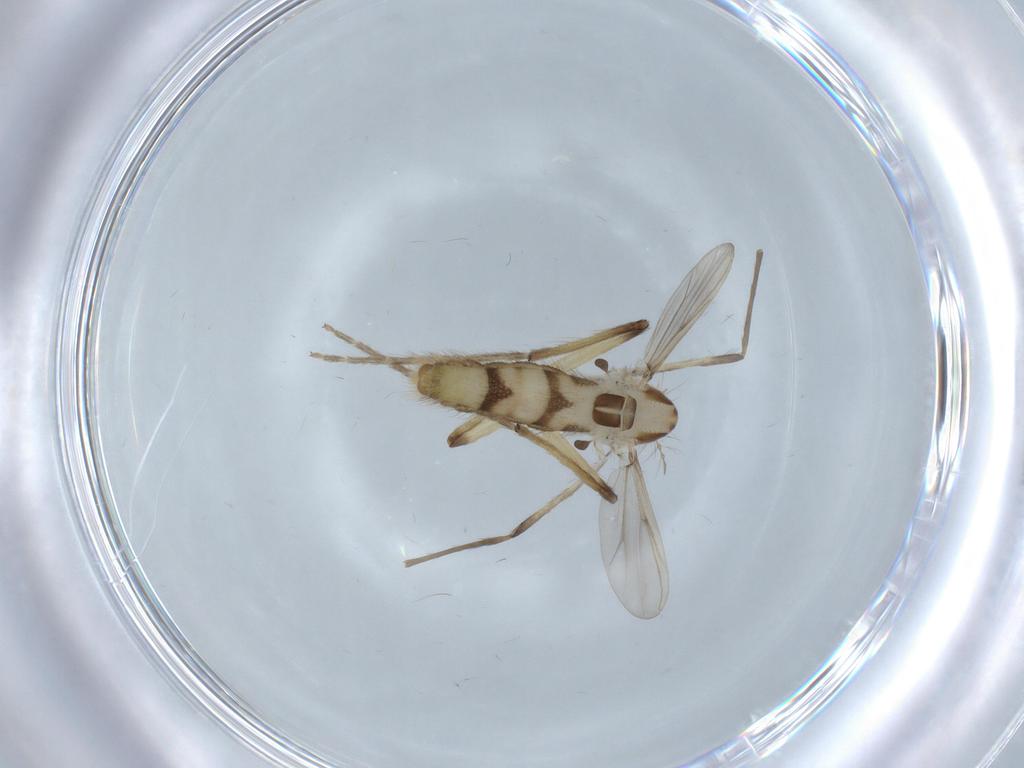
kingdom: Animalia
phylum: Arthropoda
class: Insecta
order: Diptera
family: Chironomidae
